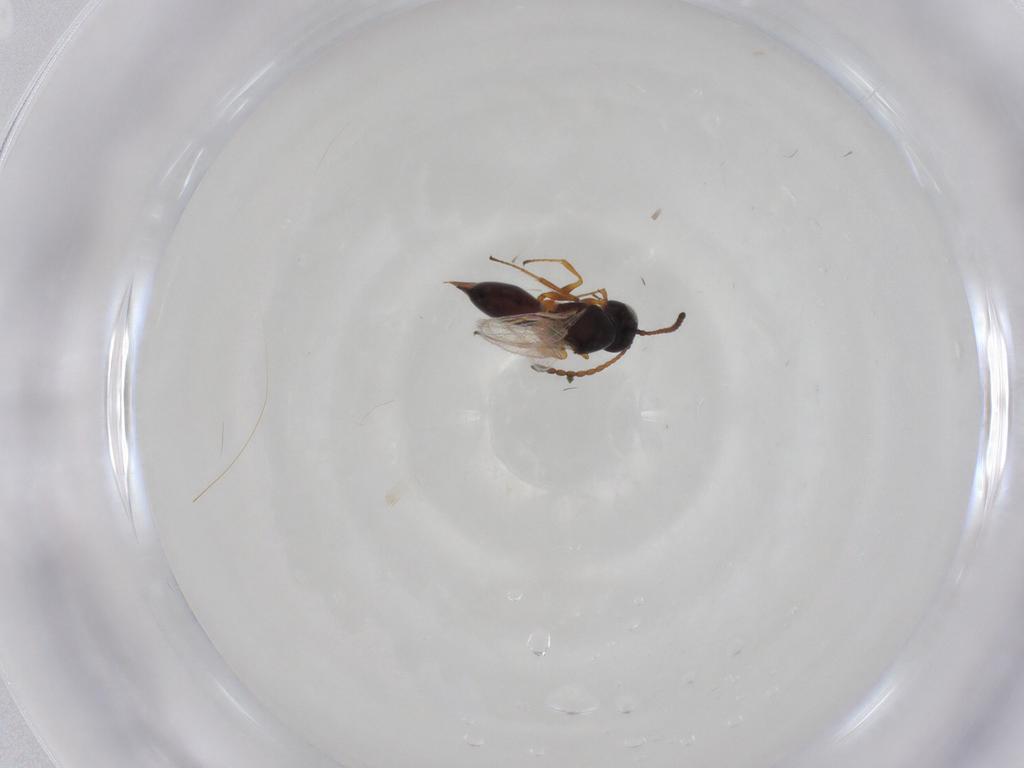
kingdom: Animalia
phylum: Arthropoda
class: Insecta
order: Hymenoptera
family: Figitidae
